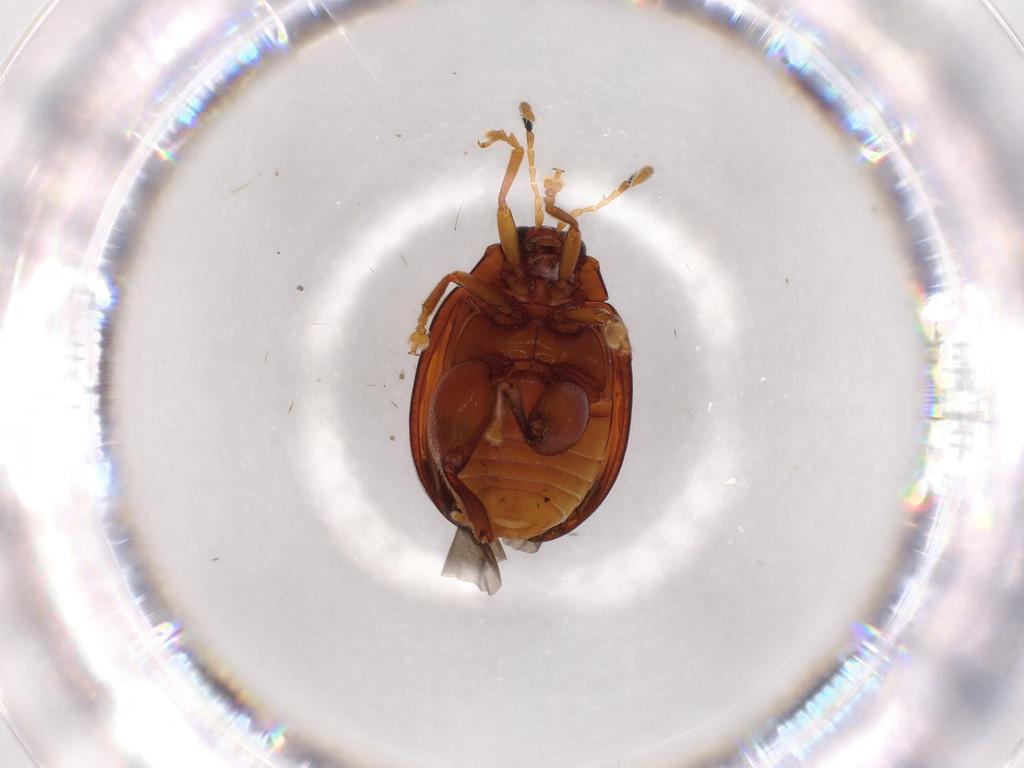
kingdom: Animalia
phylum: Arthropoda
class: Insecta
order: Coleoptera
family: Chrysomelidae
